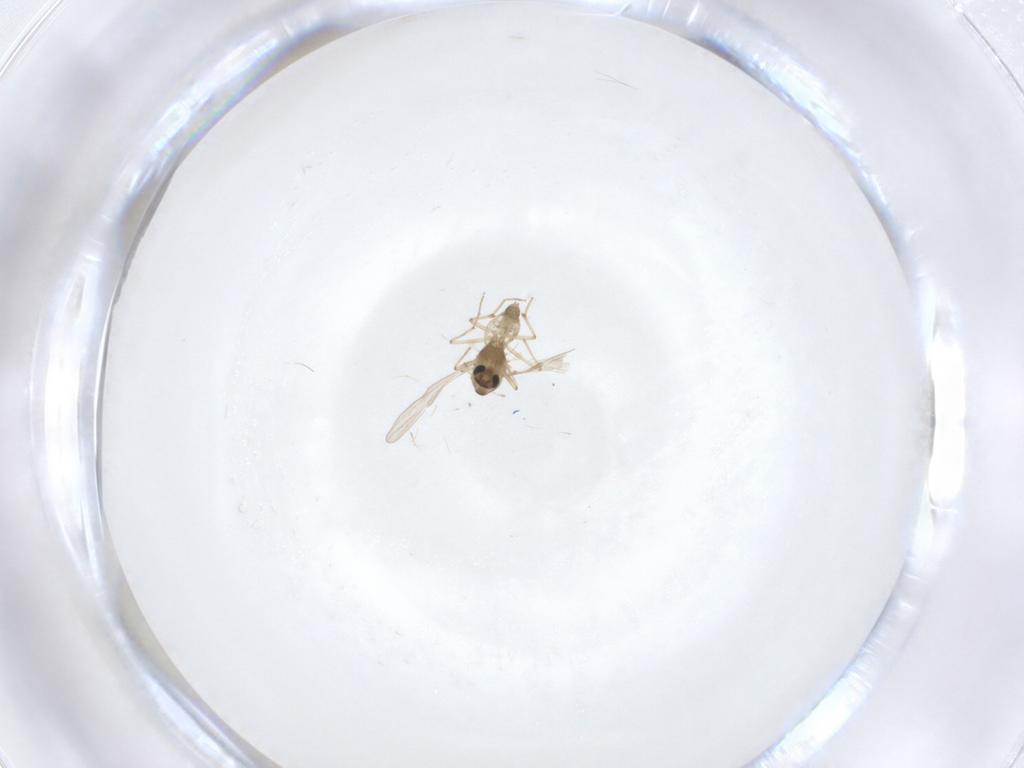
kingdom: Animalia
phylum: Arthropoda
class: Insecta
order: Diptera
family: Chironomidae
